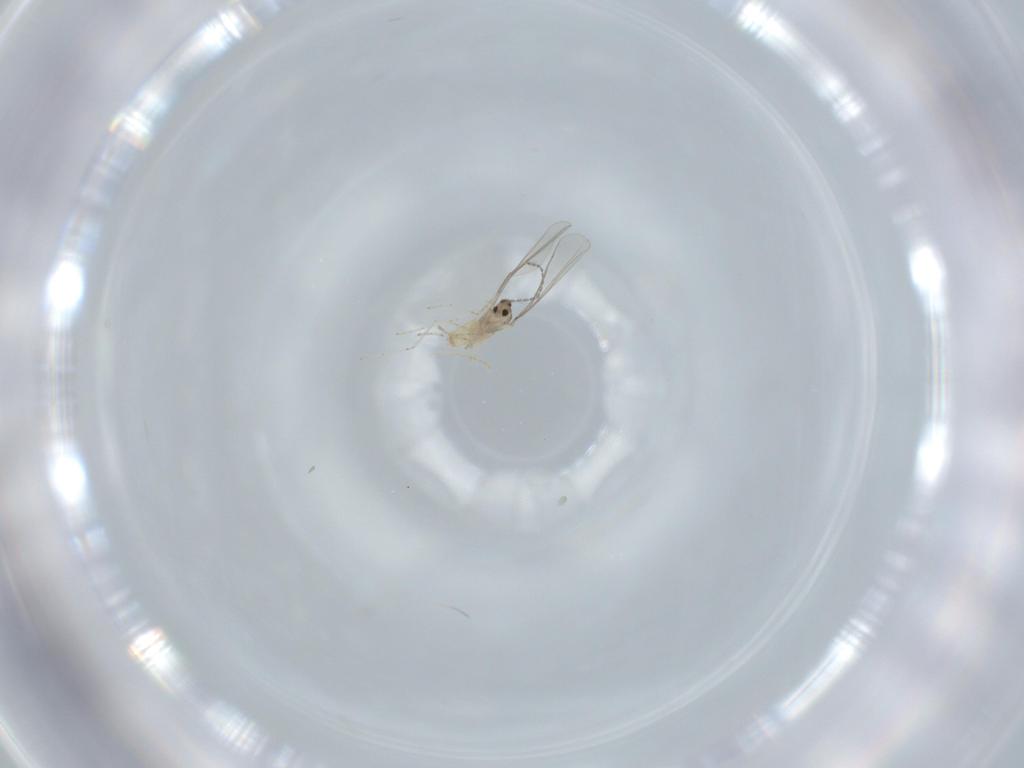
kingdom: Animalia
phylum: Arthropoda
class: Insecta
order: Diptera
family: Cecidomyiidae
